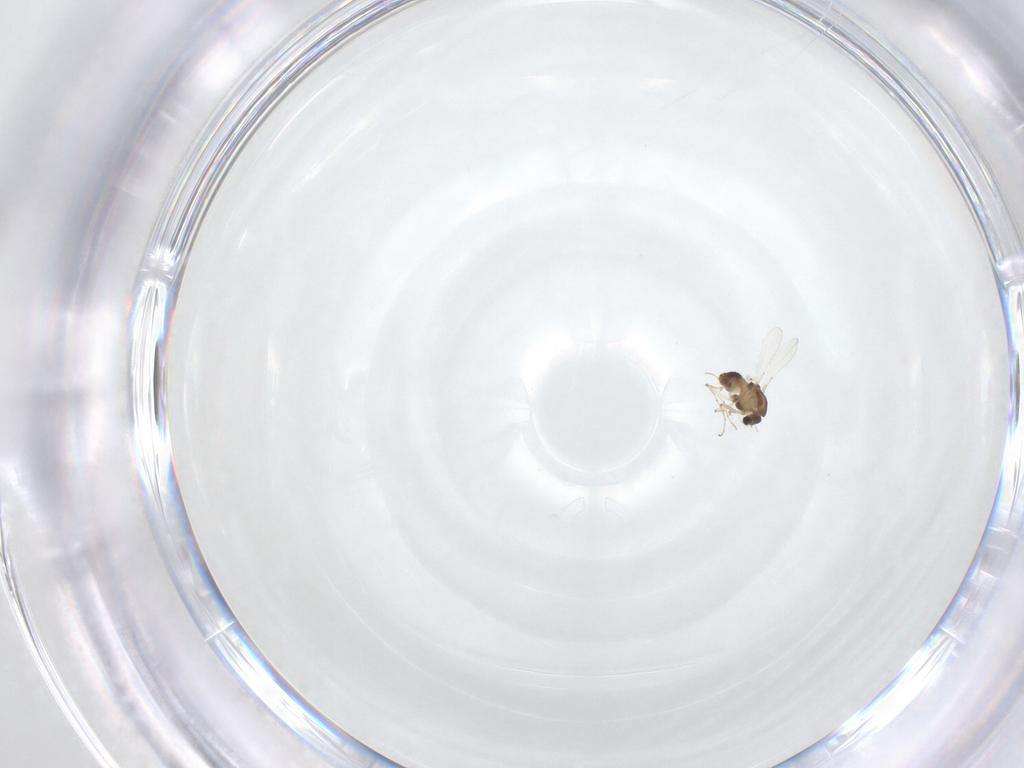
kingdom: Animalia
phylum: Arthropoda
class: Insecta
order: Diptera
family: Chironomidae
